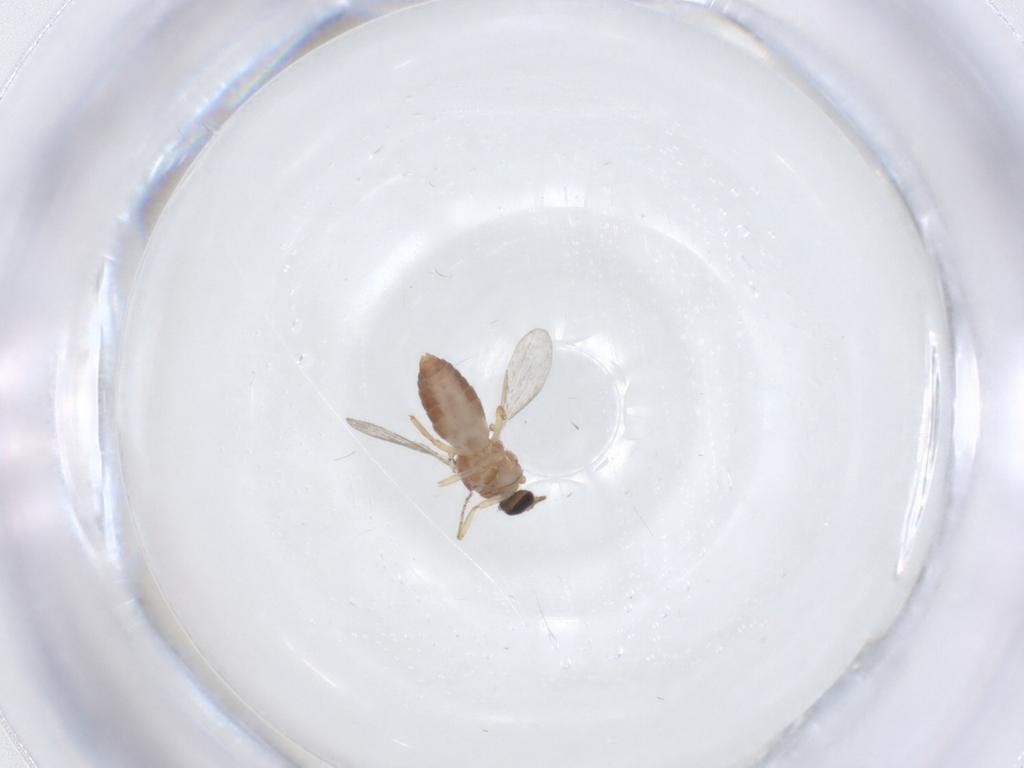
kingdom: Animalia
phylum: Arthropoda
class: Insecta
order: Diptera
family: Ceratopogonidae
